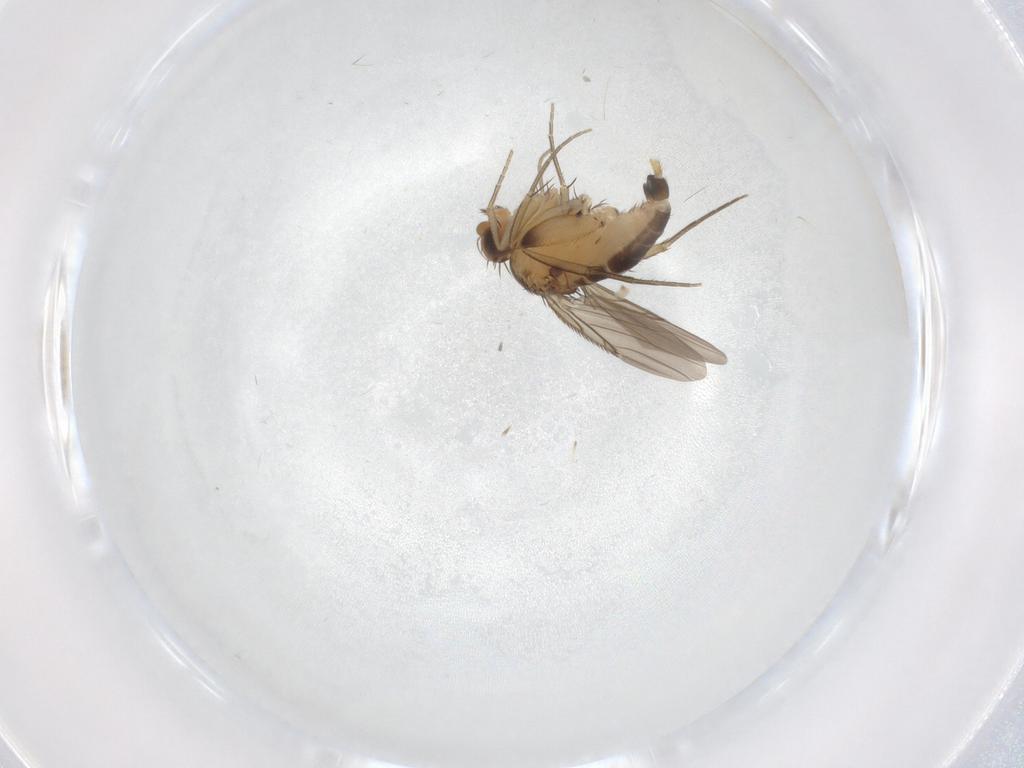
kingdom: Animalia
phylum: Arthropoda
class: Insecta
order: Diptera
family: Phoridae
